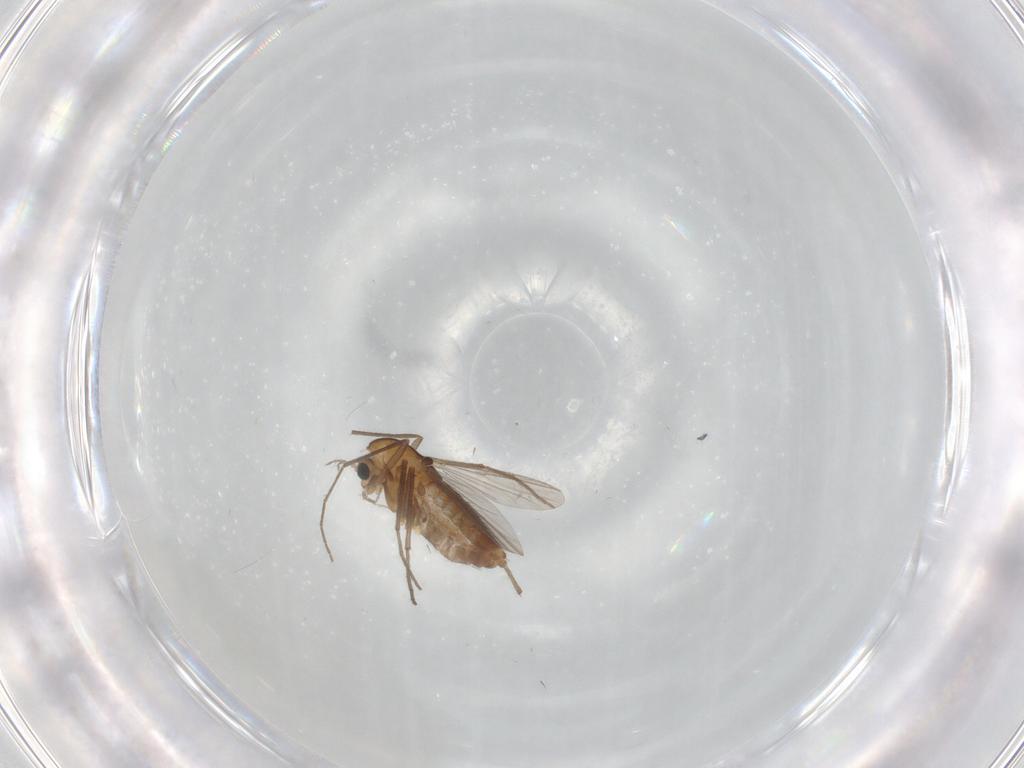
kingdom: Animalia
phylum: Arthropoda
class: Insecta
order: Diptera
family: Chironomidae
